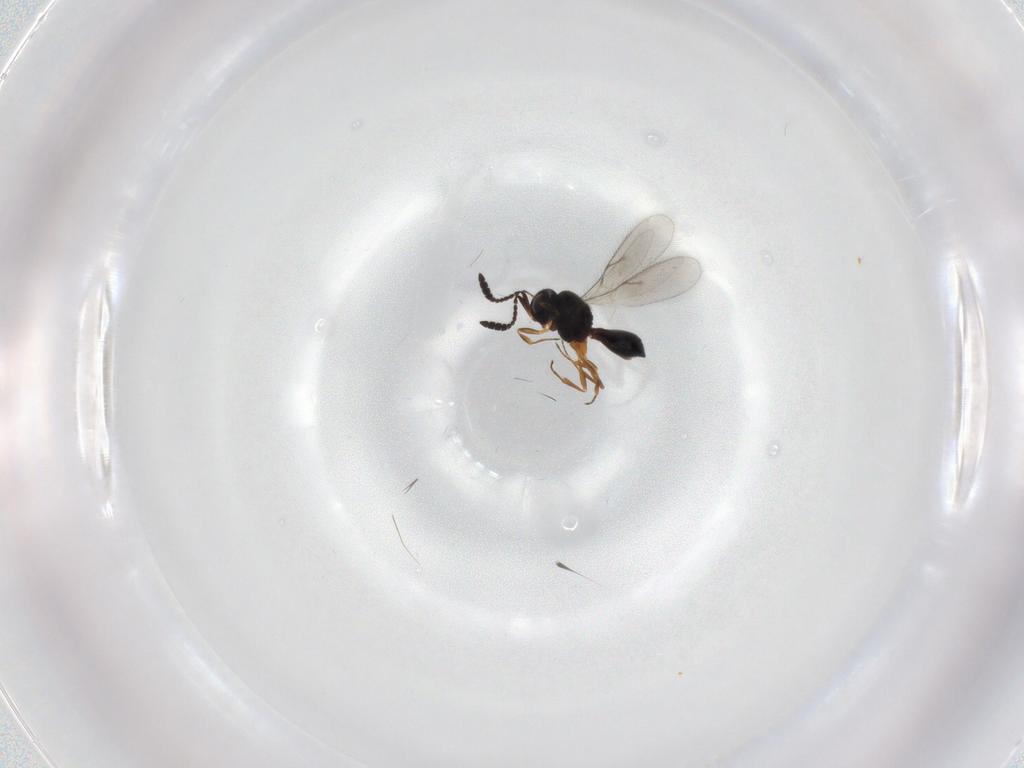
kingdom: Animalia
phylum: Arthropoda
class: Insecta
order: Hymenoptera
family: Scelionidae
